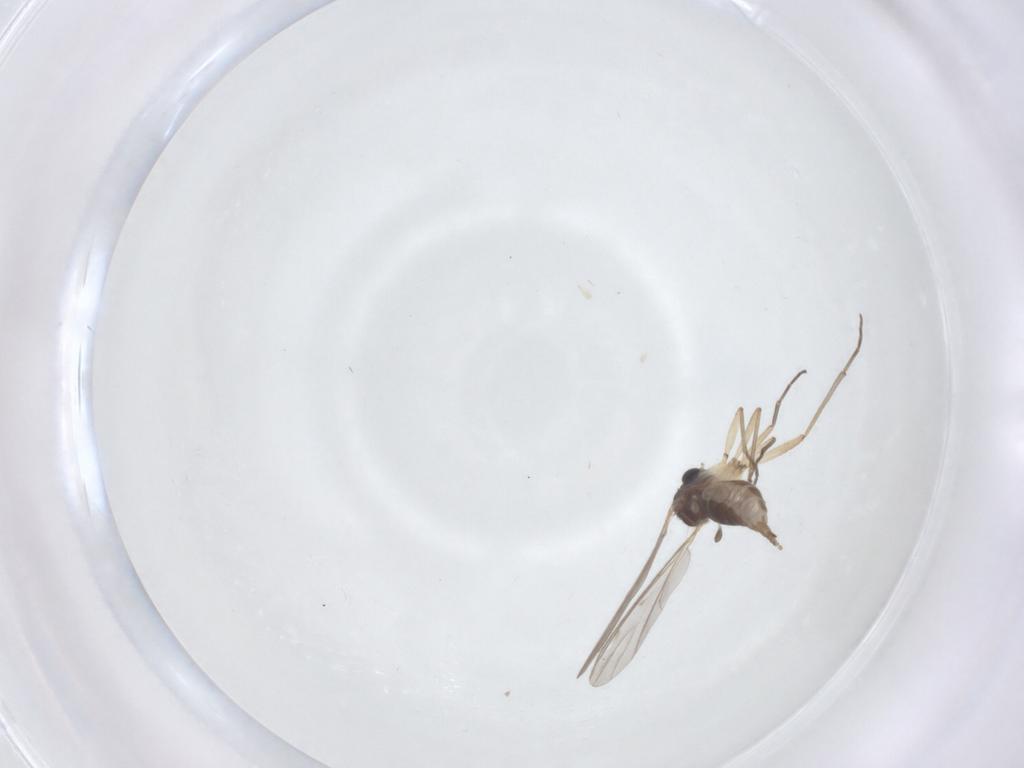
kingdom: Animalia
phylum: Arthropoda
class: Insecta
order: Diptera
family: Sciaridae
